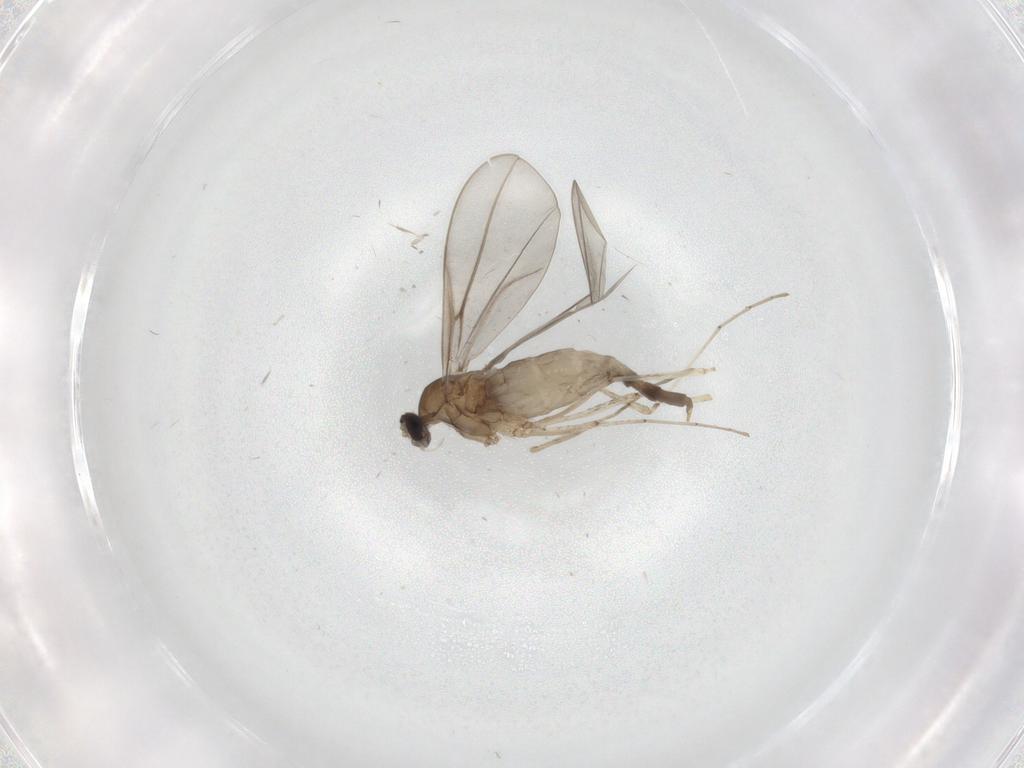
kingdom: Animalia
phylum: Arthropoda
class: Insecta
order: Diptera
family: Cecidomyiidae
